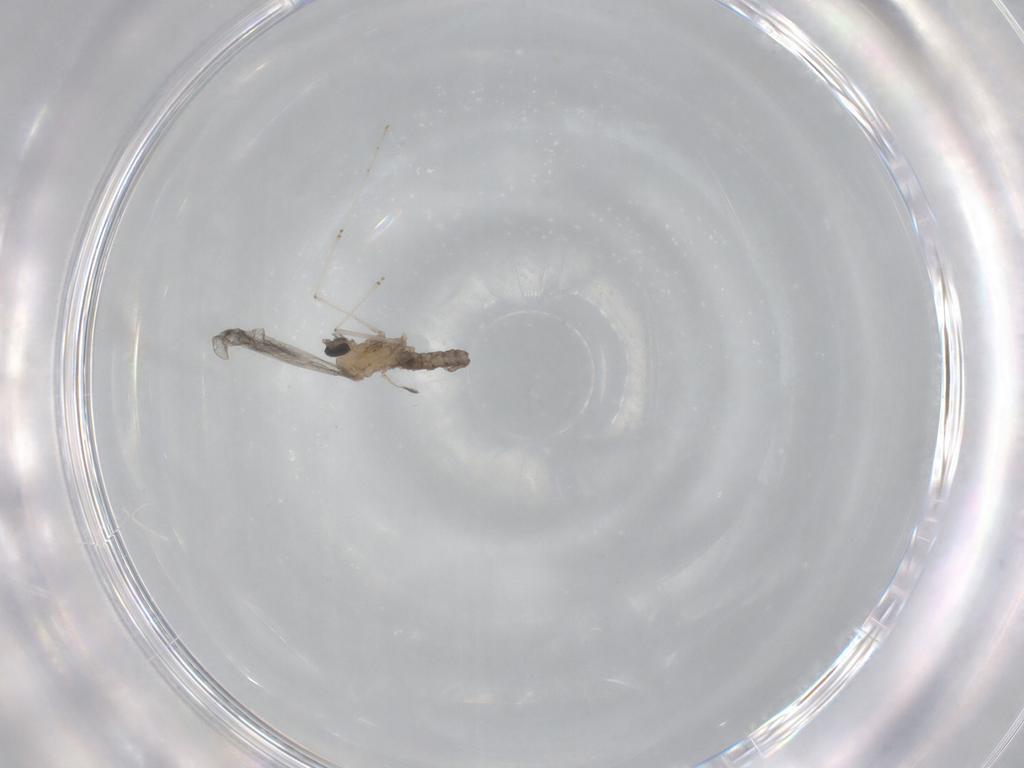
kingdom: Animalia
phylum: Arthropoda
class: Insecta
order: Diptera
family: Cecidomyiidae
